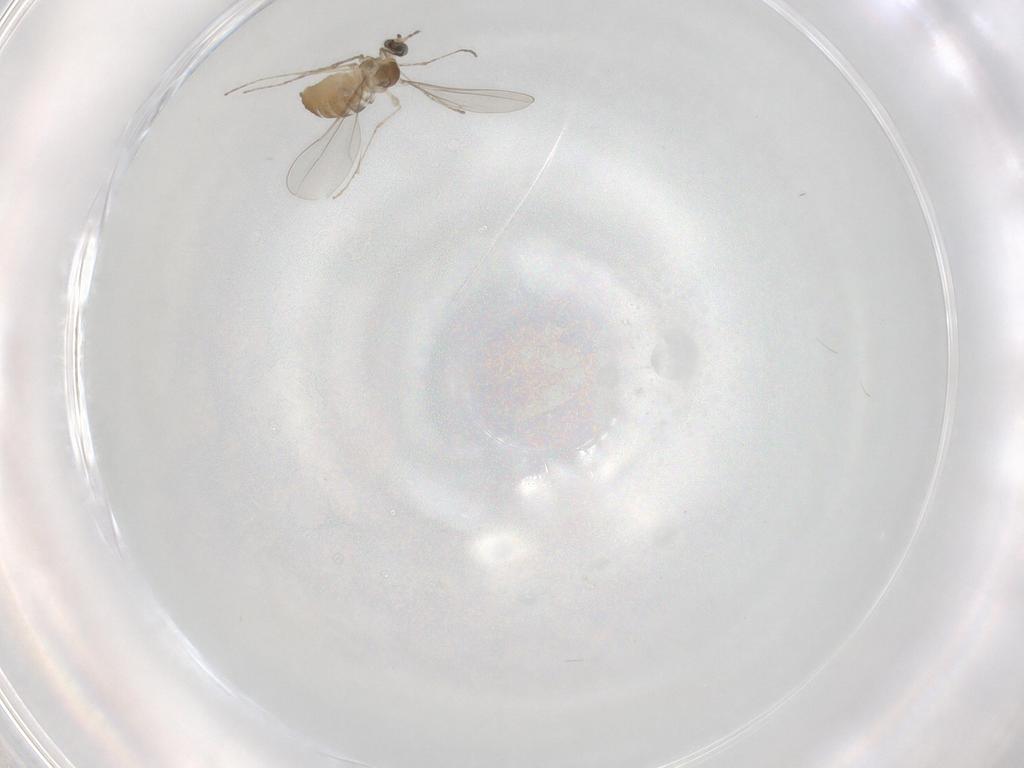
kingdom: Animalia
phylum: Arthropoda
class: Insecta
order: Diptera
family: Cecidomyiidae
